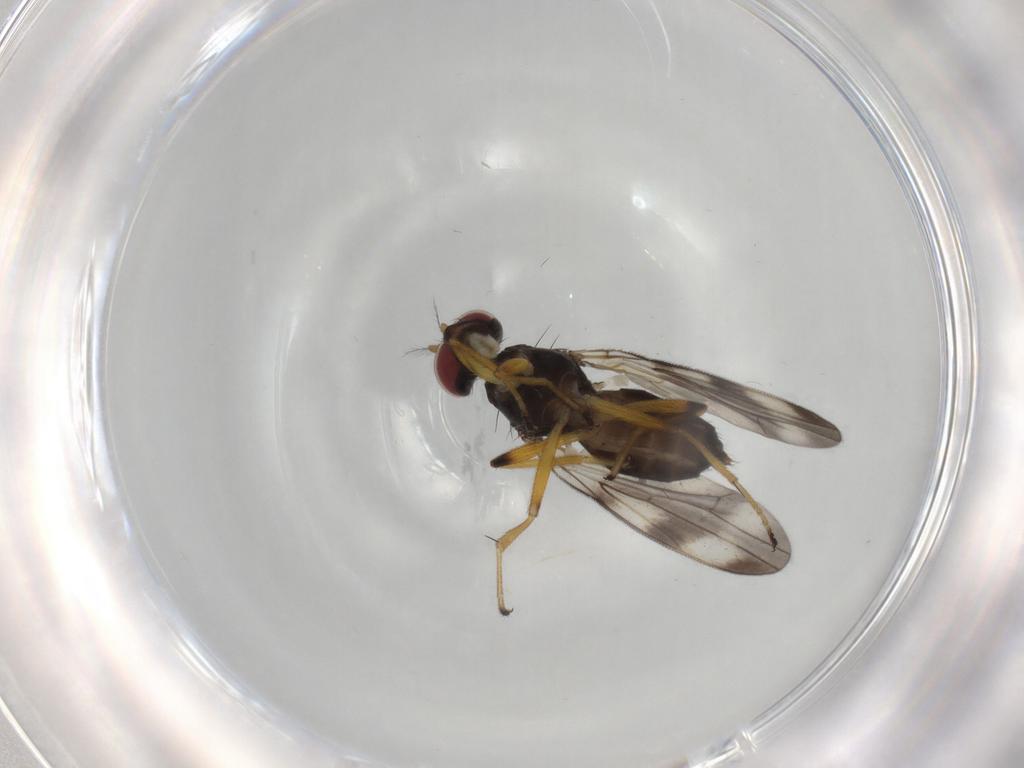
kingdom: Animalia
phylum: Arthropoda
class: Insecta
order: Diptera
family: Periscelididae
